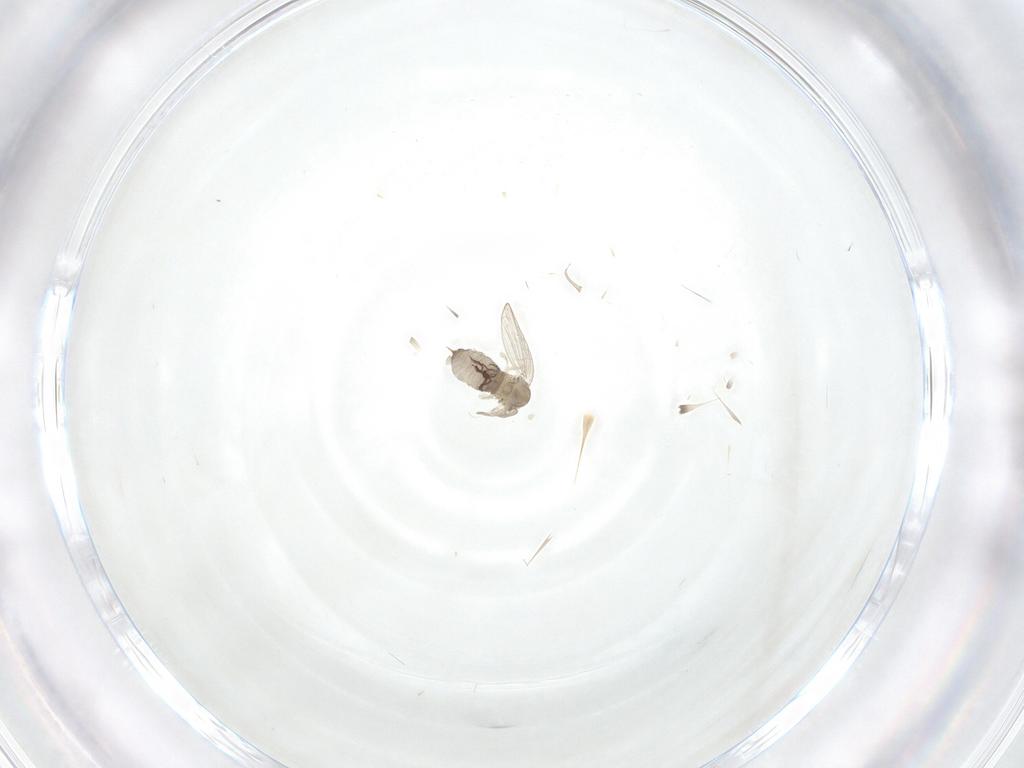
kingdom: Animalia
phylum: Arthropoda
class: Insecta
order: Diptera
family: Psychodidae
